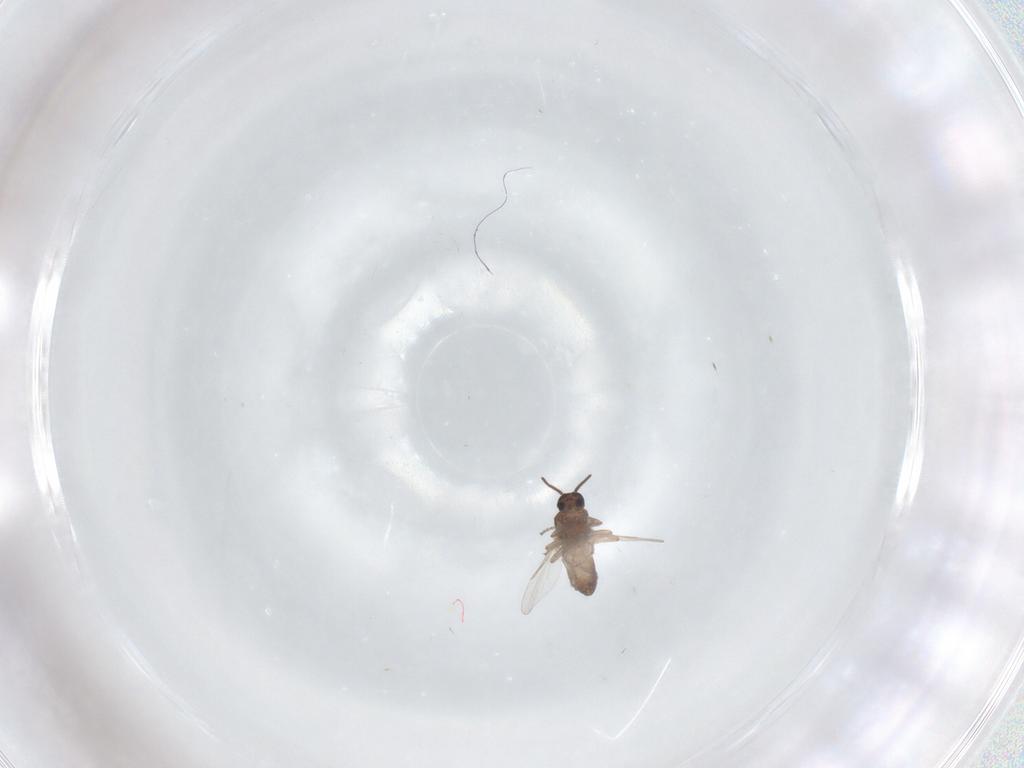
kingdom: Animalia
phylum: Arthropoda
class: Insecta
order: Diptera
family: Ceratopogonidae
